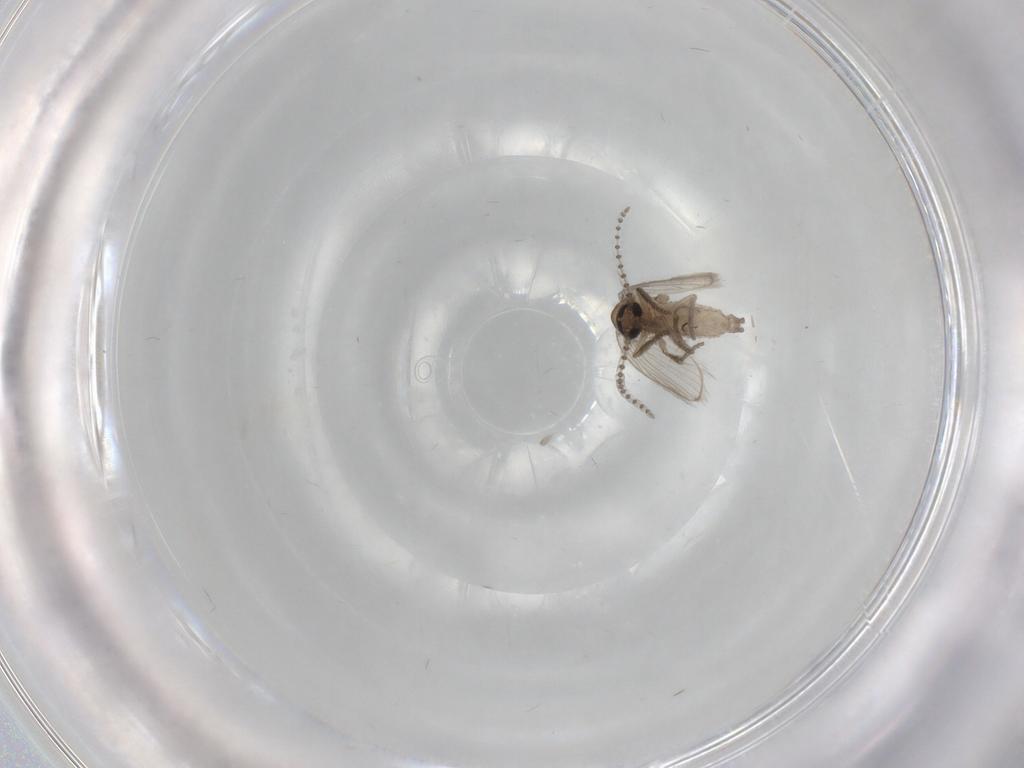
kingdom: Animalia
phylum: Arthropoda
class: Insecta
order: Diptera
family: Psychodidae
